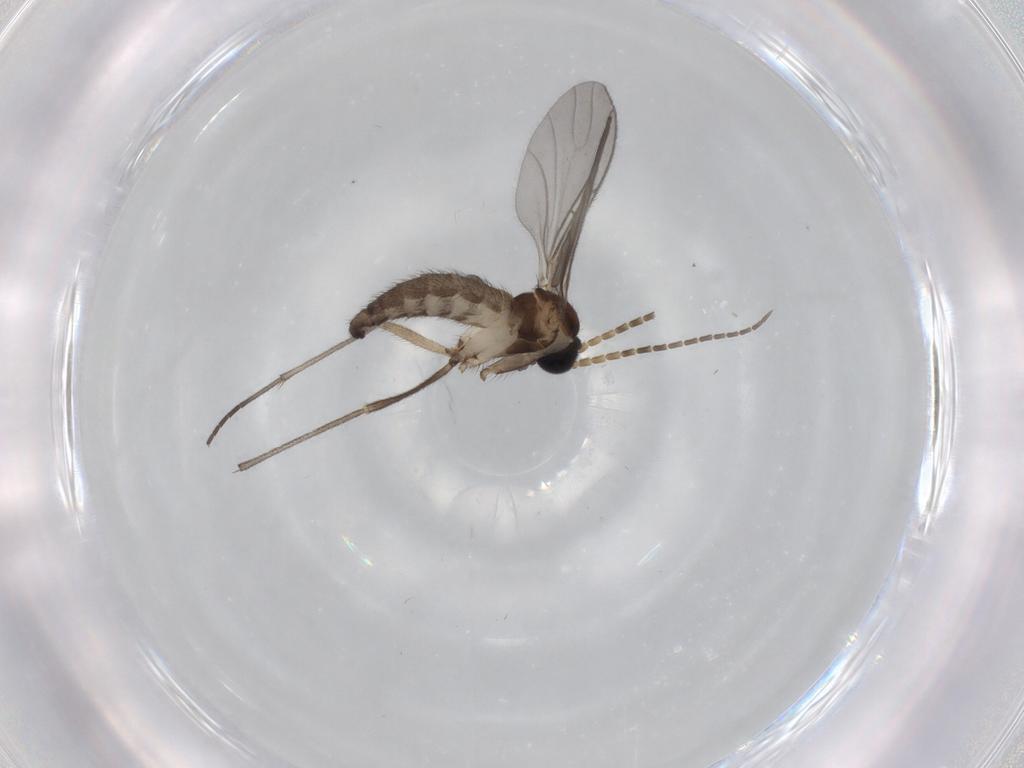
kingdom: Animalia
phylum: Arthropoda
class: Insecta
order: Diptera
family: Sciaridae
